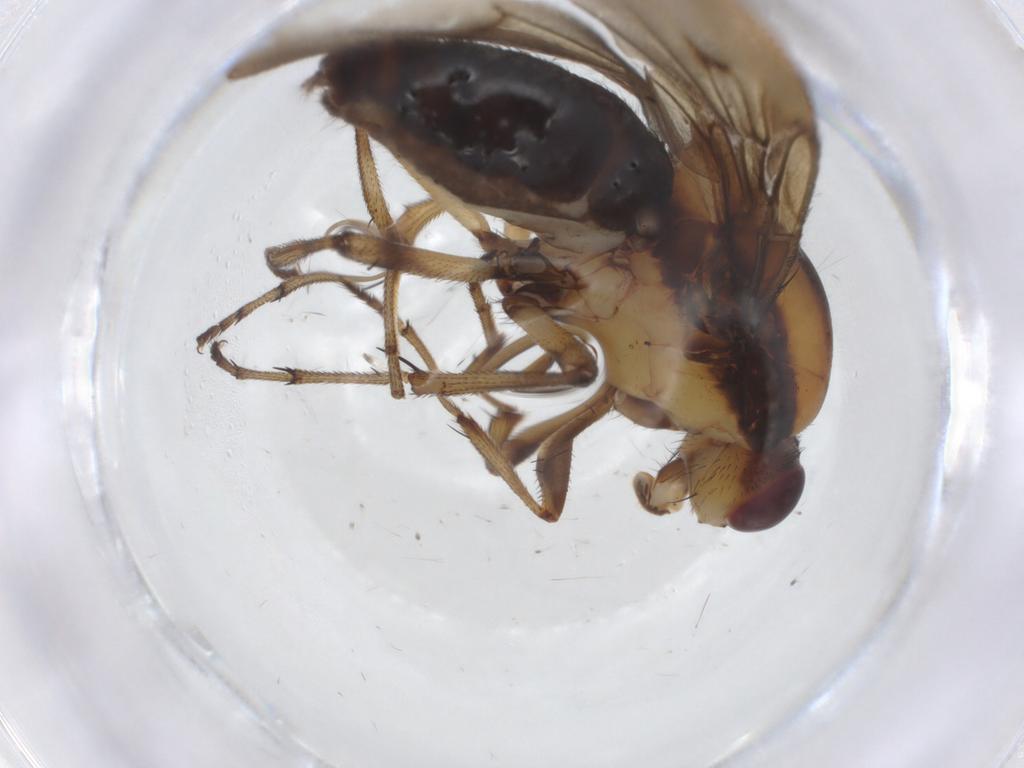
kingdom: Animalia
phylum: Arthropoda
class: Insecta
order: Diptera
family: Heleomyzidae
